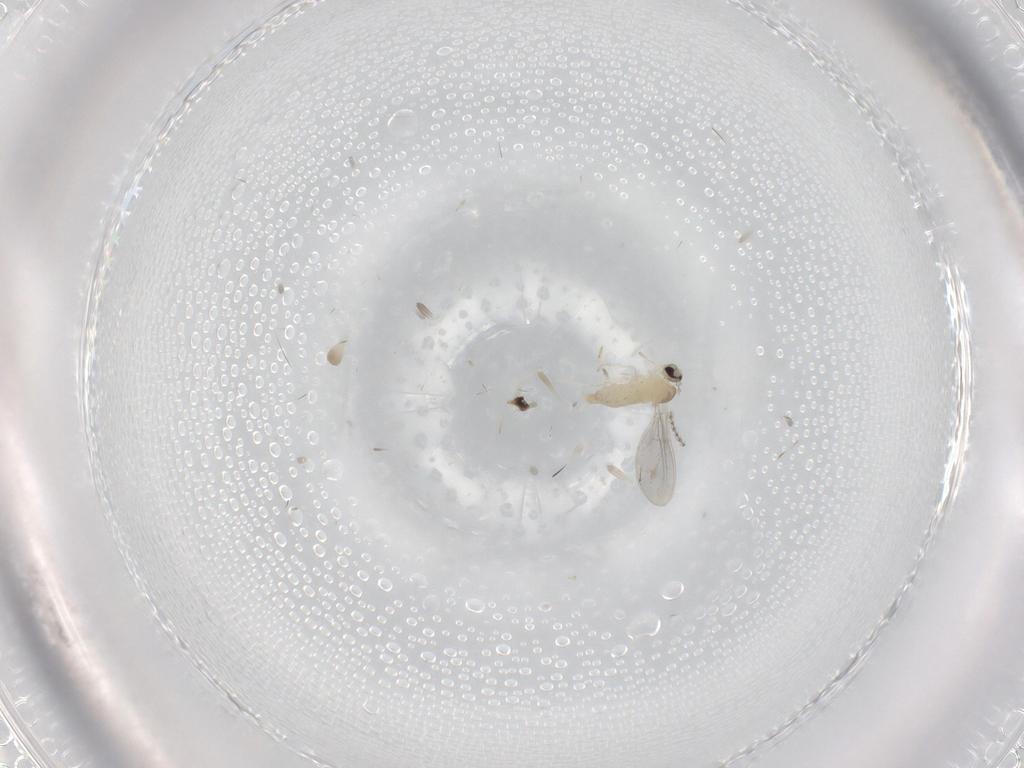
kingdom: Animalia
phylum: Arthropoda
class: Insecta
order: Diptera
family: Cecidomyiidae
